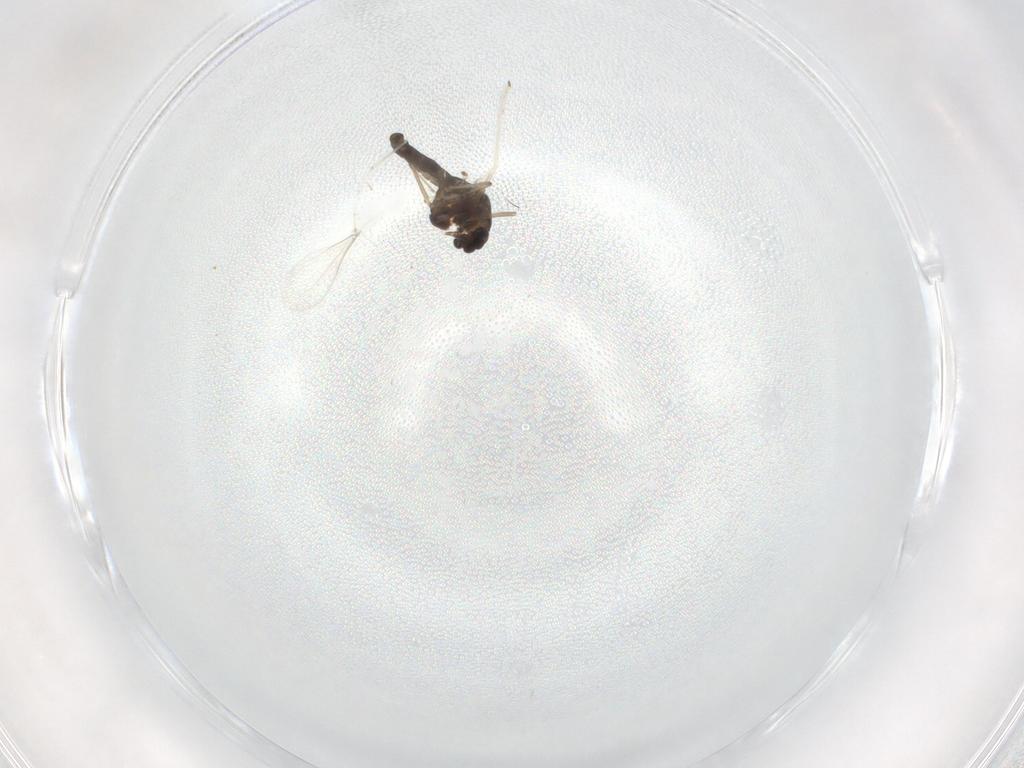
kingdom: Animalia
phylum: Arthropoda
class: Insecta
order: Diptera
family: Cecidomyiidae
